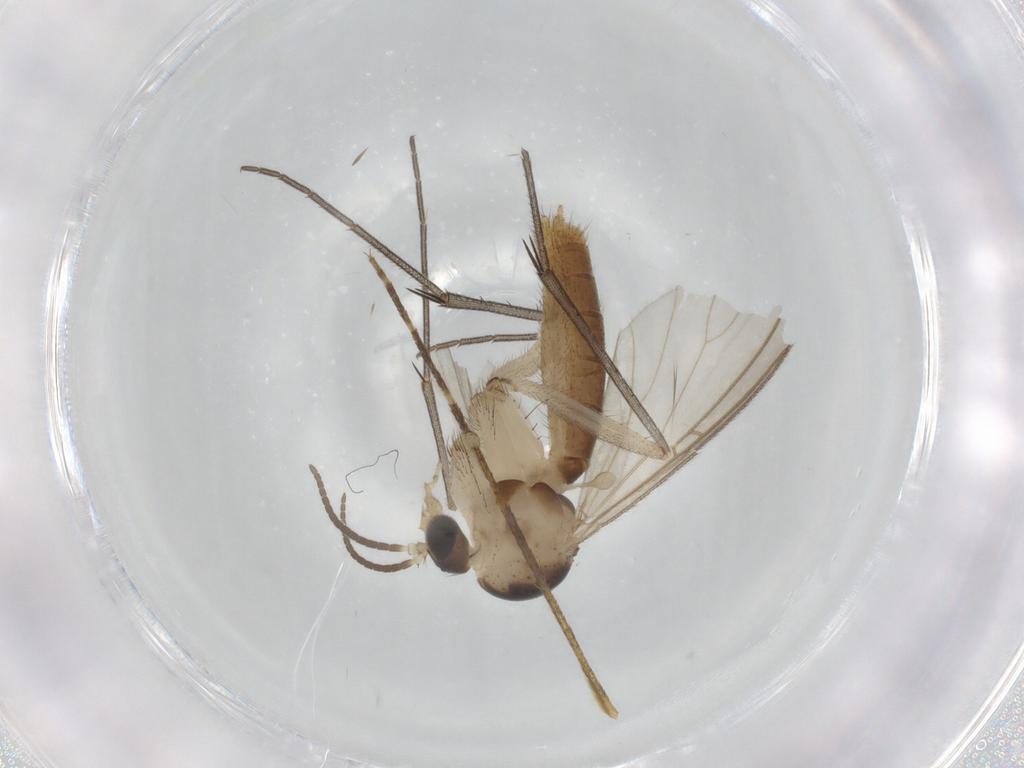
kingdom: Animalia
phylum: Arthropoda
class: Insecta
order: Diptera
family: Mycetophilidae
